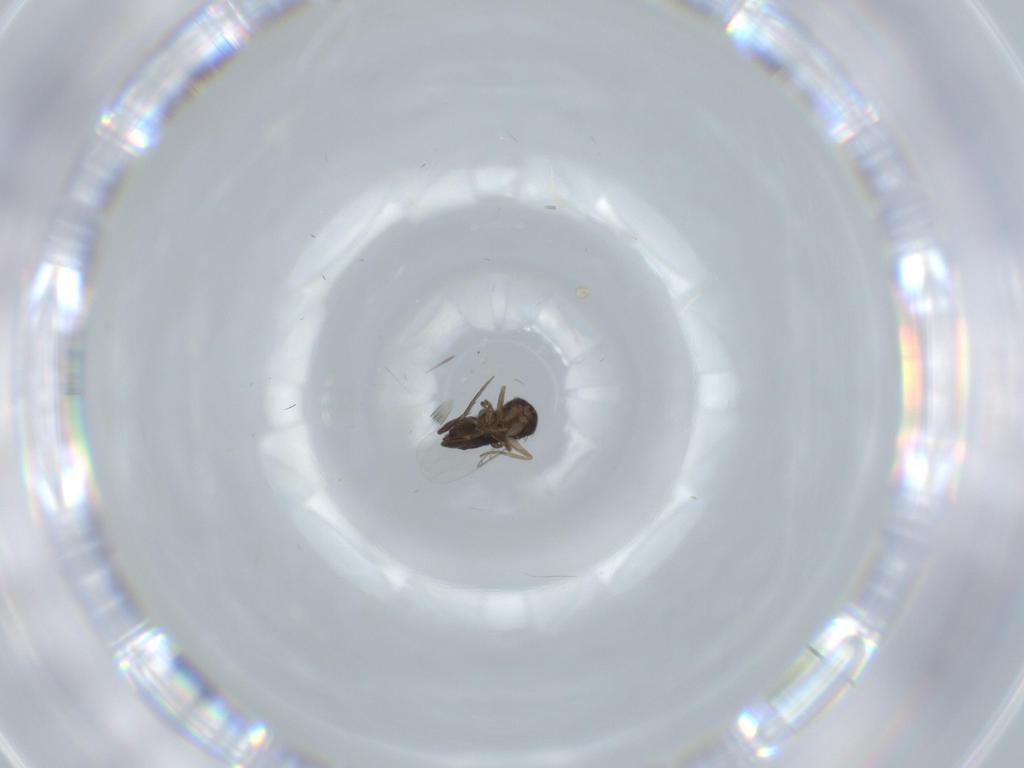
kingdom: Animalia
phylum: Arthropoda
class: Insecta
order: Diptera
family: Phoridae
